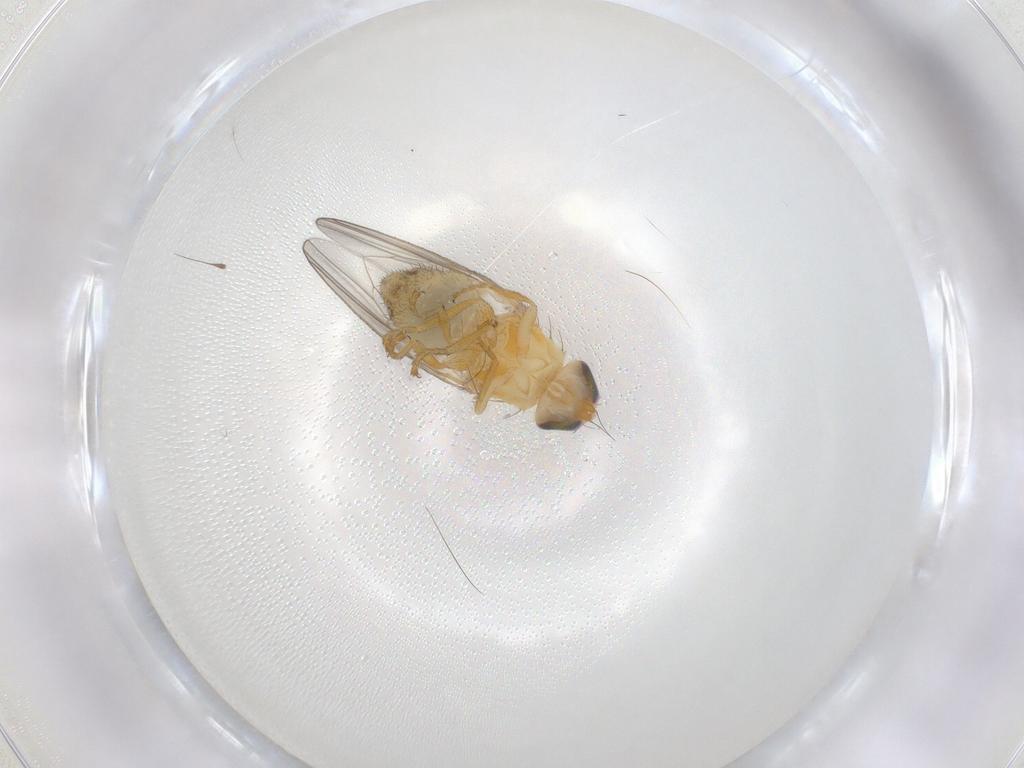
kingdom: Animalia
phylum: Arthropoda
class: Insecta
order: Diptera
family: Chyromyidae
